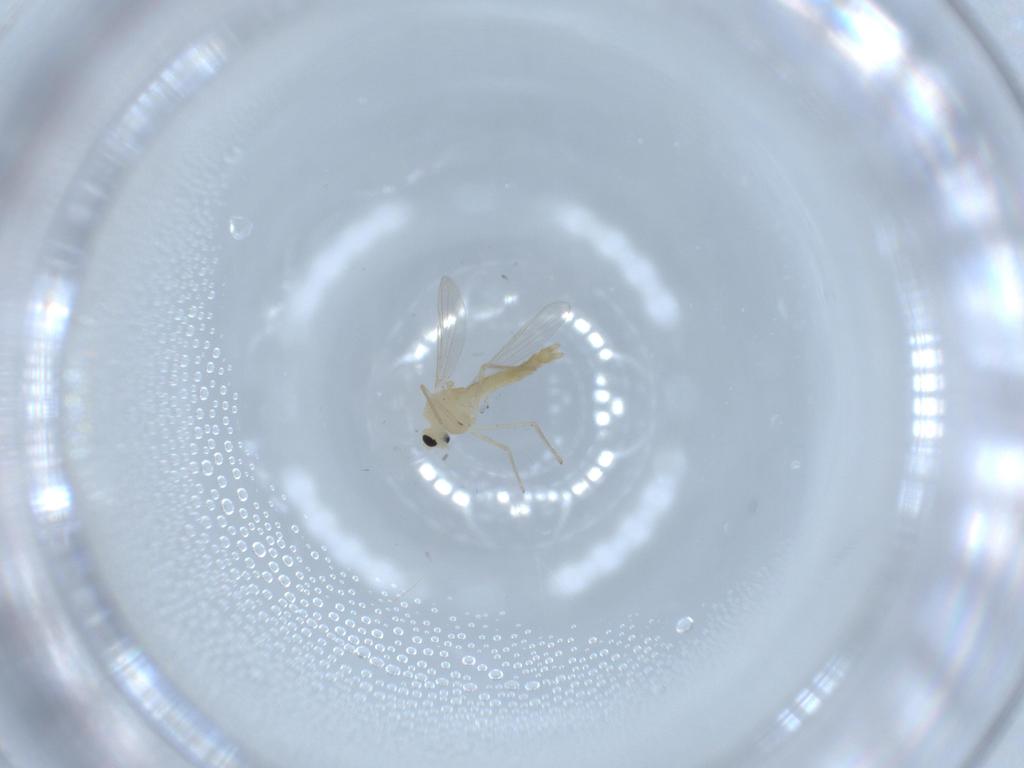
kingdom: Animalia
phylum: Arthropoda
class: Insecta
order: Diptera
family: Chironomidae
